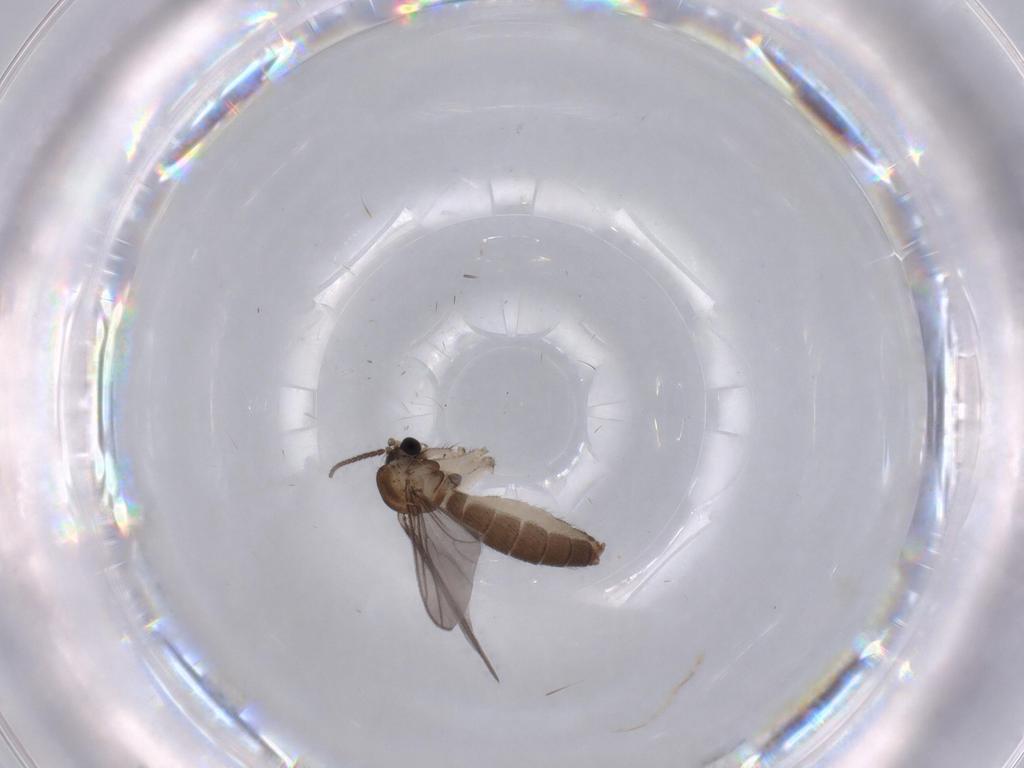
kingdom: Animalia
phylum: Arthropoda
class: Insecta
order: Diptera
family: Sciaridae
